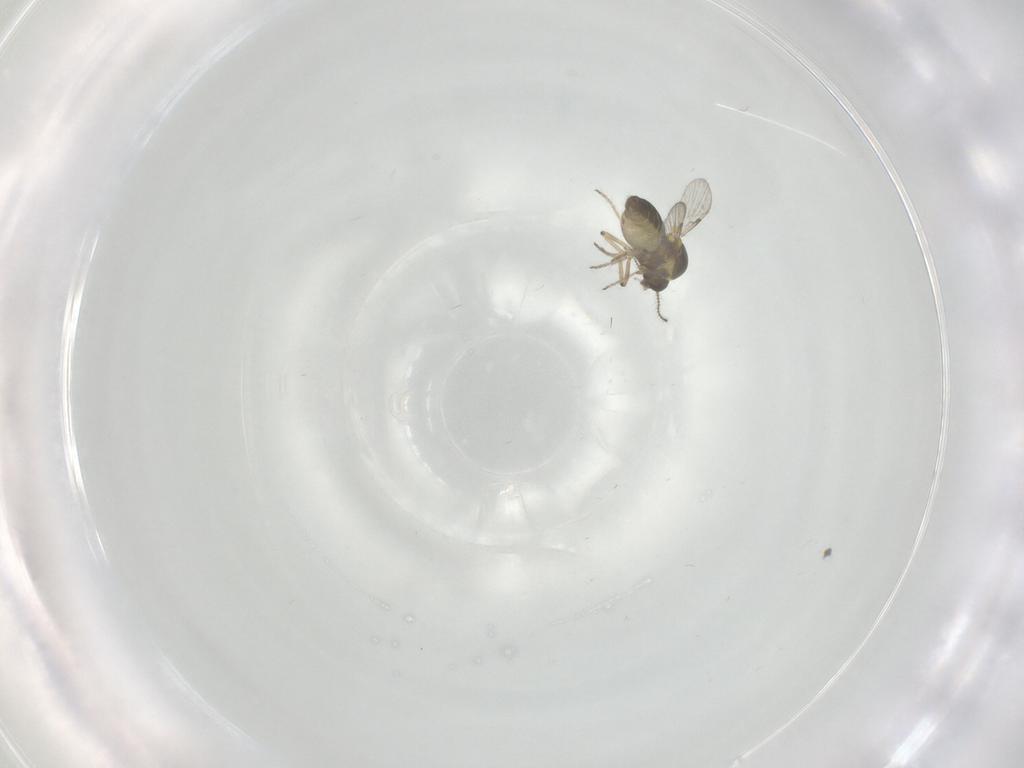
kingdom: Animalia
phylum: Arthropoda
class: Insecta
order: Diptera
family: Ceratopogonidae
